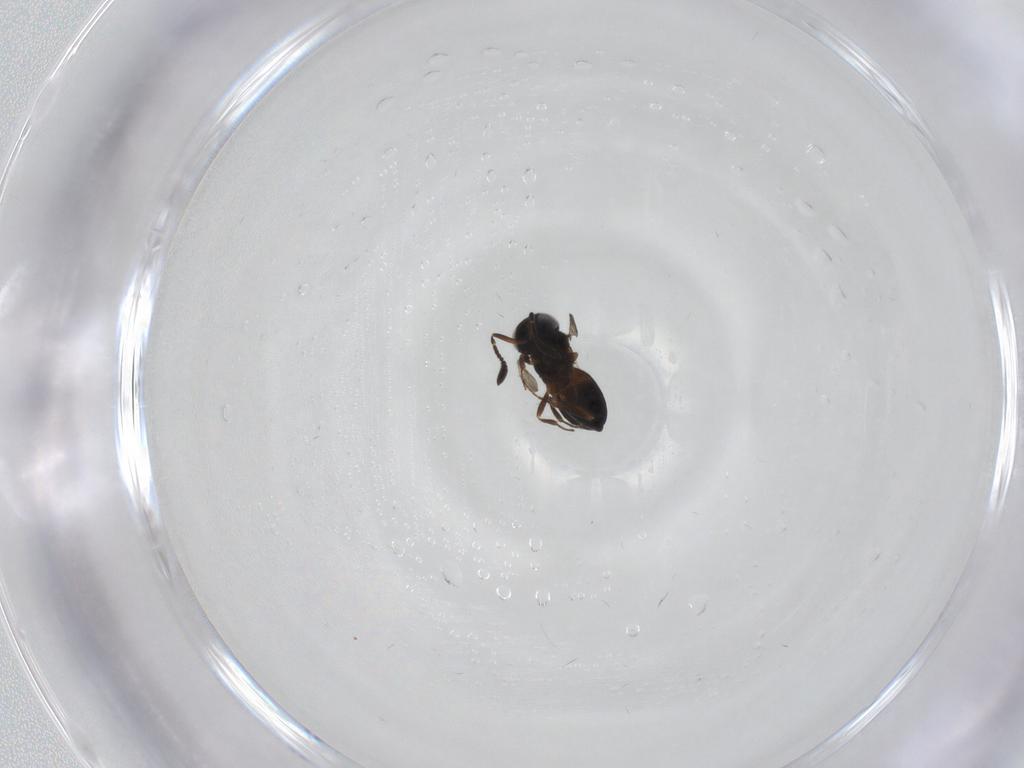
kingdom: Animalia
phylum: Arthropoda
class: Insecta
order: Hymenoptera
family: Scelionidae
